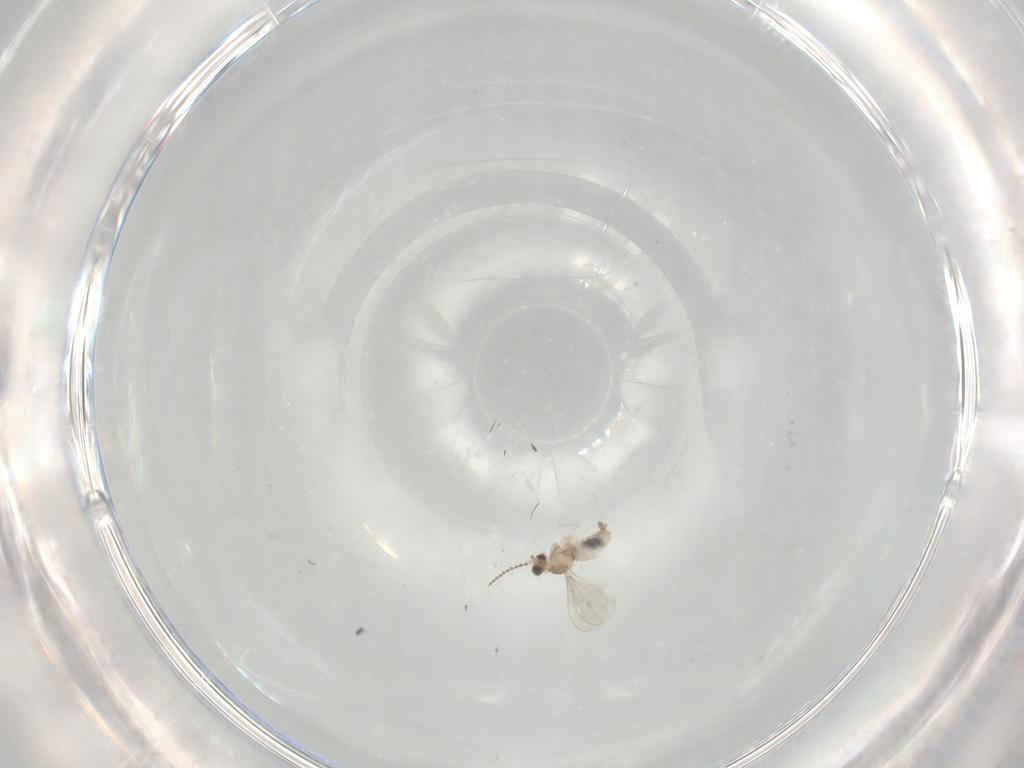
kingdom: Animalia
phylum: Arthropoda
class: Insecta
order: Diptera
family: Cecidomyiidae
